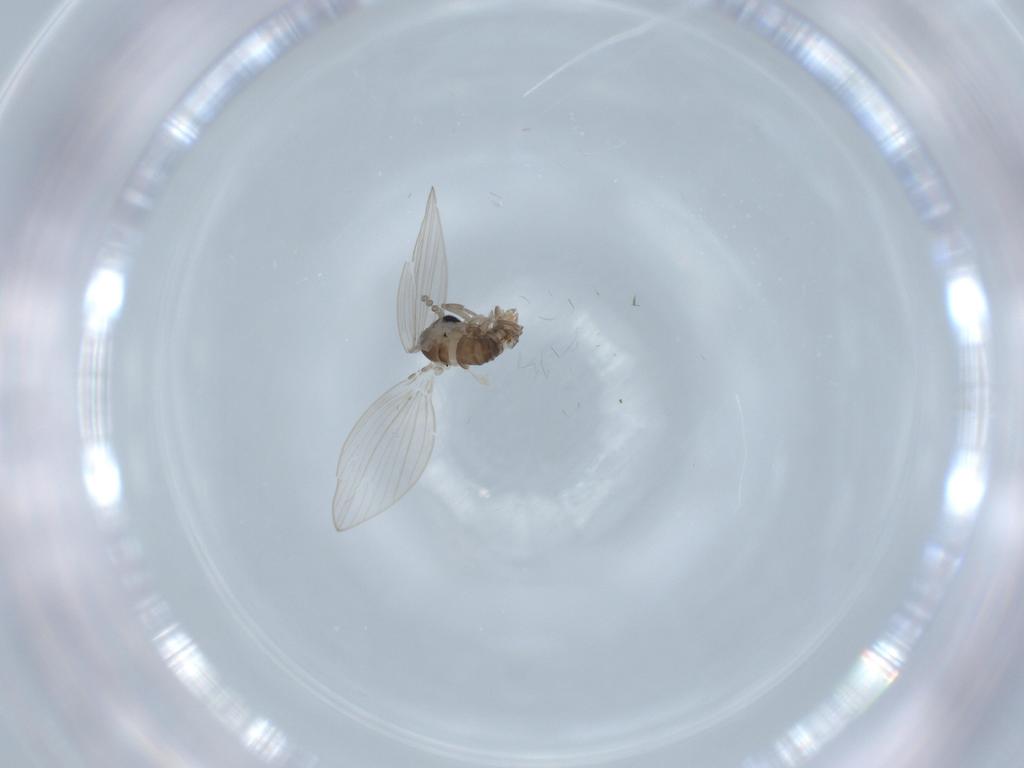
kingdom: Animalia
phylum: Arthropoda
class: Insecta
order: Diptera
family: Psychodidae
